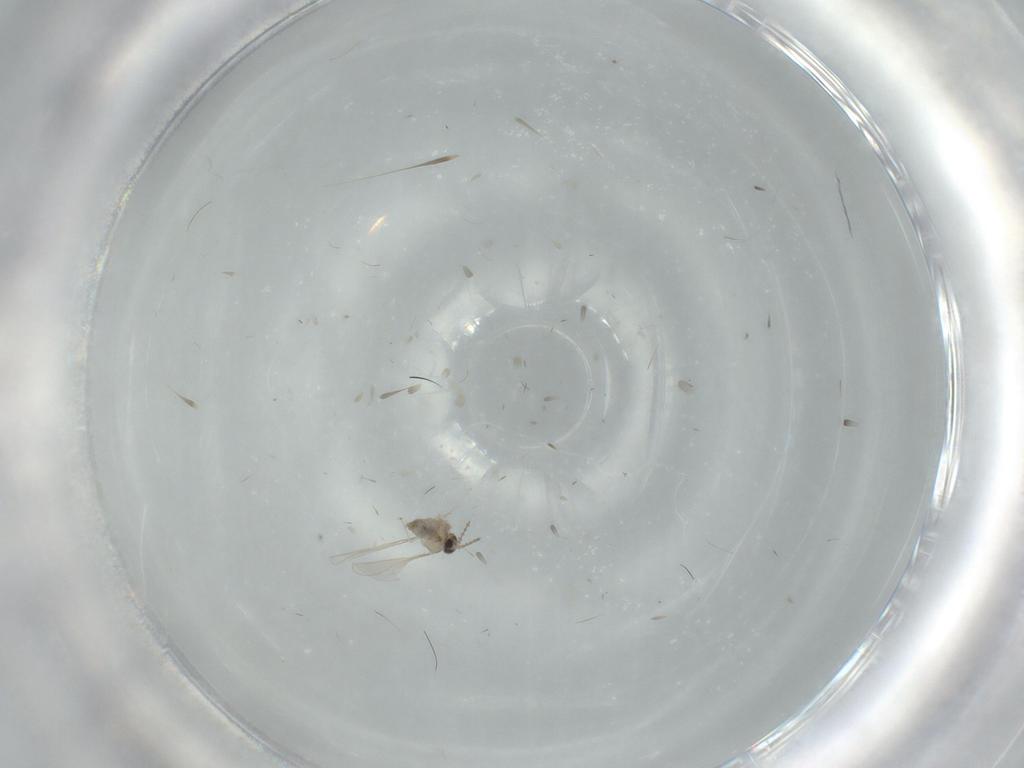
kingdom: Animalia
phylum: Arthropoda
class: Insecta
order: Diptera
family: Cecidomyiidae
